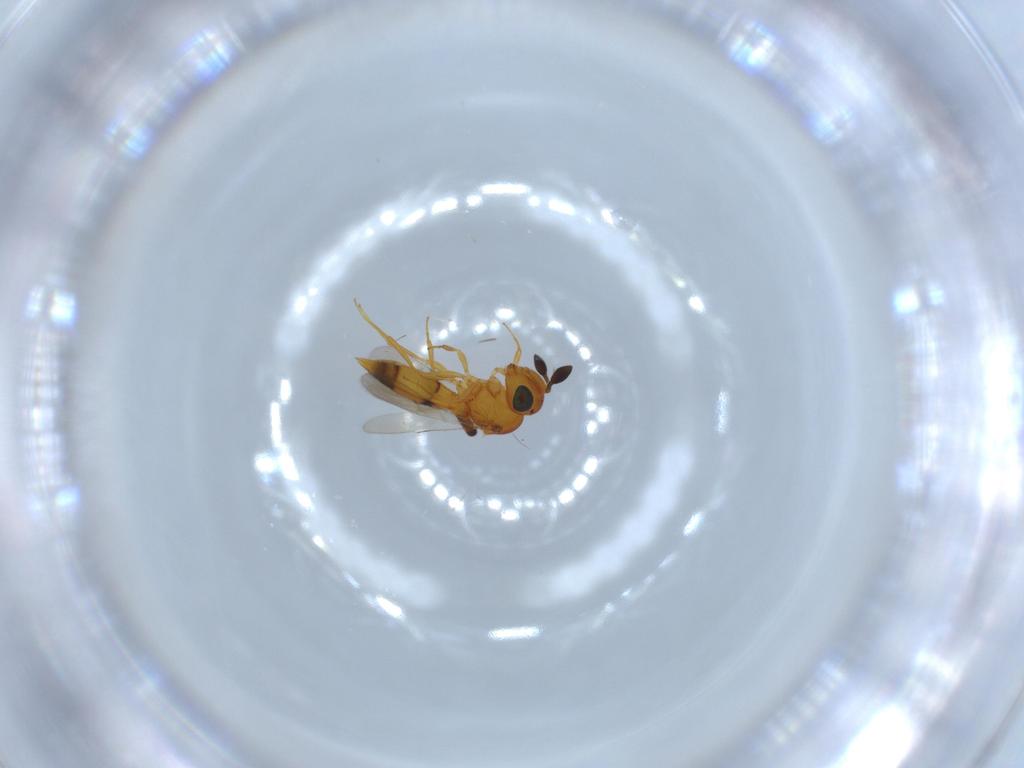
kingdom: Animalia
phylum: Arthropoda
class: Insecta
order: Hymenoptera
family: Scelionidae
